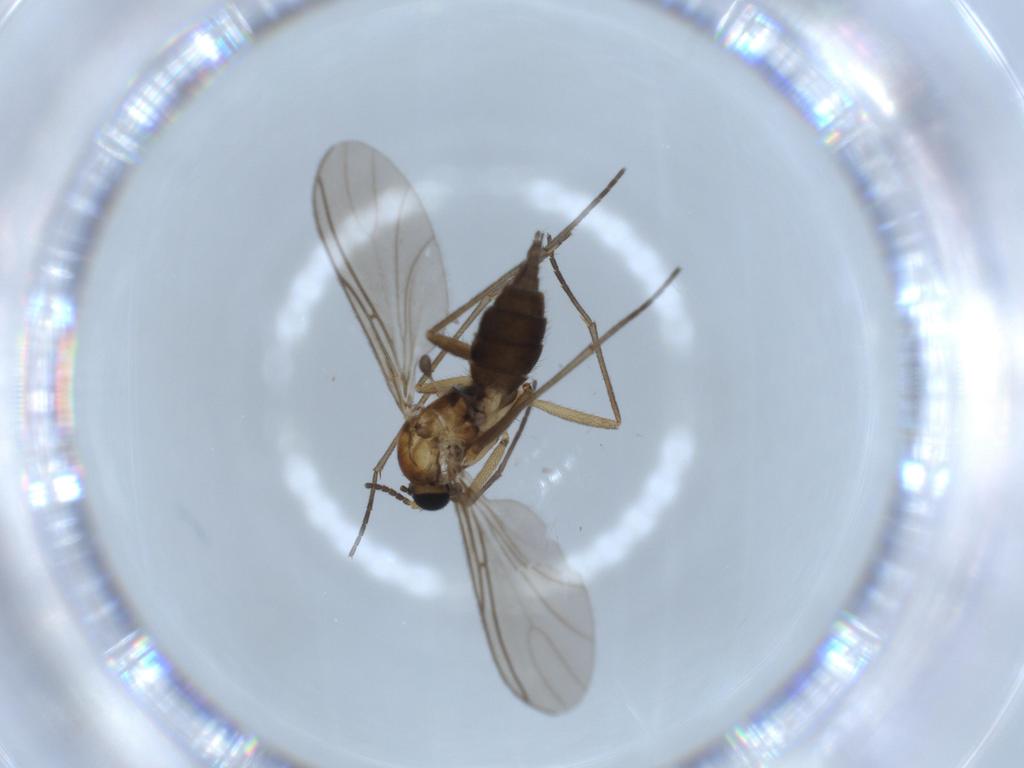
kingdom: Animalia
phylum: Arthropoda
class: Insecta
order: Diptera
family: Sciaridae
